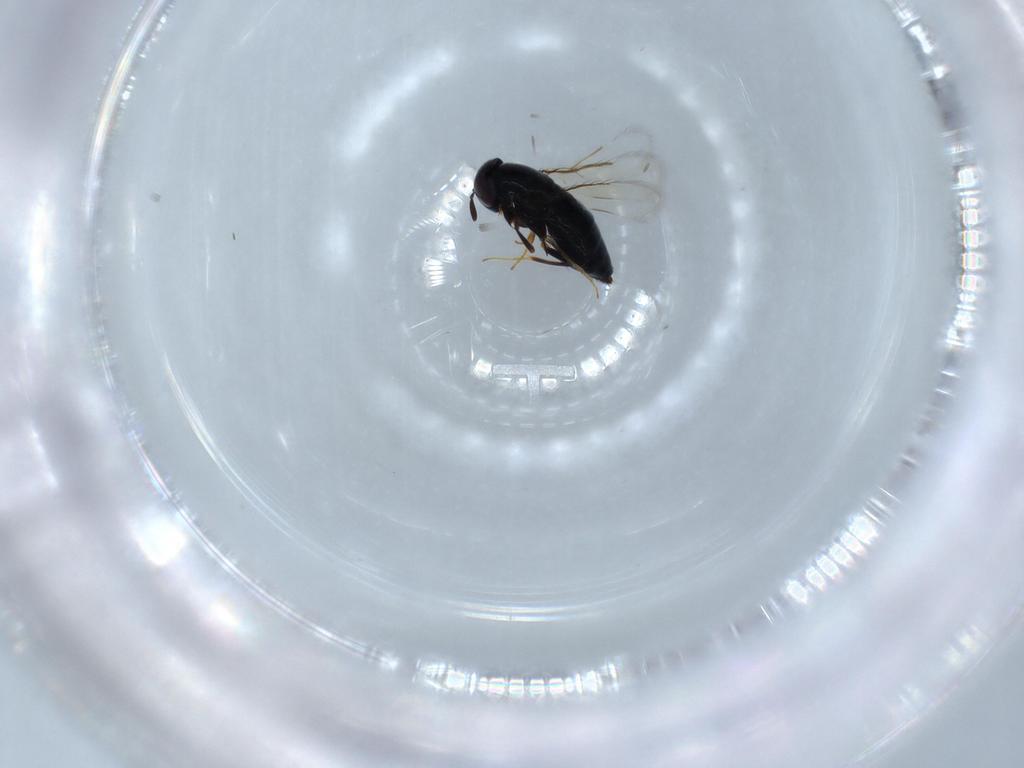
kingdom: Animalia
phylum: Arthropoda
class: Insecta
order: Hymenoptera
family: Signiphoridae
